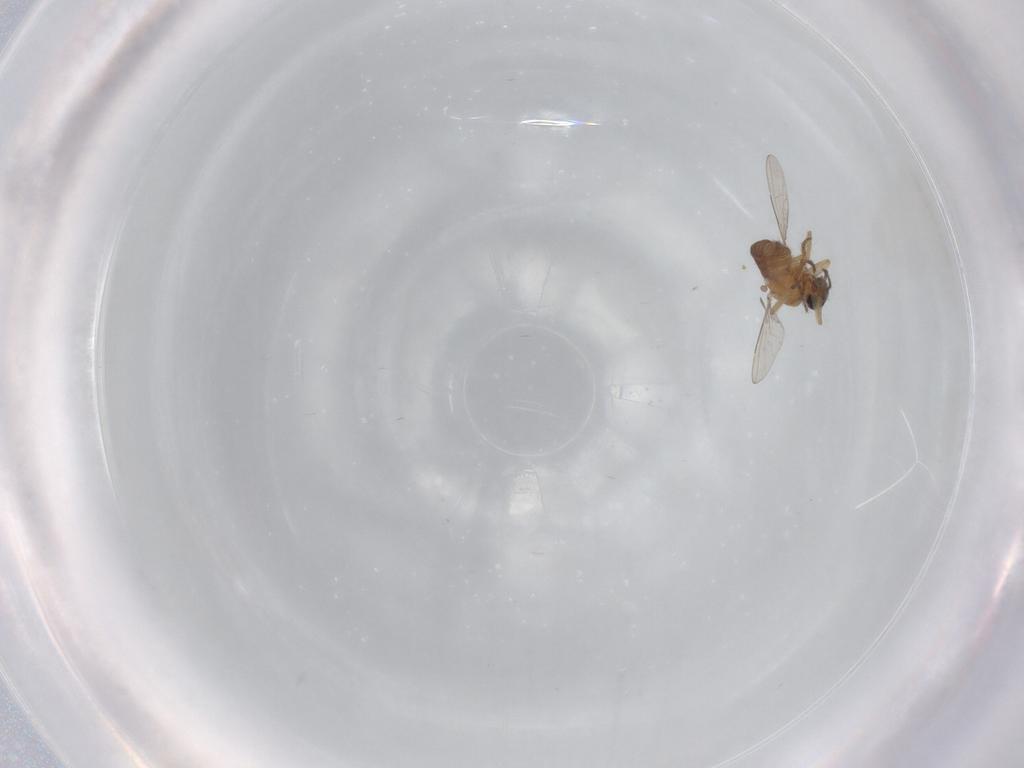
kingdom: Animalia
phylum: Arthropoda
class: Insecta
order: Diptera
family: Ceratopogonidae
